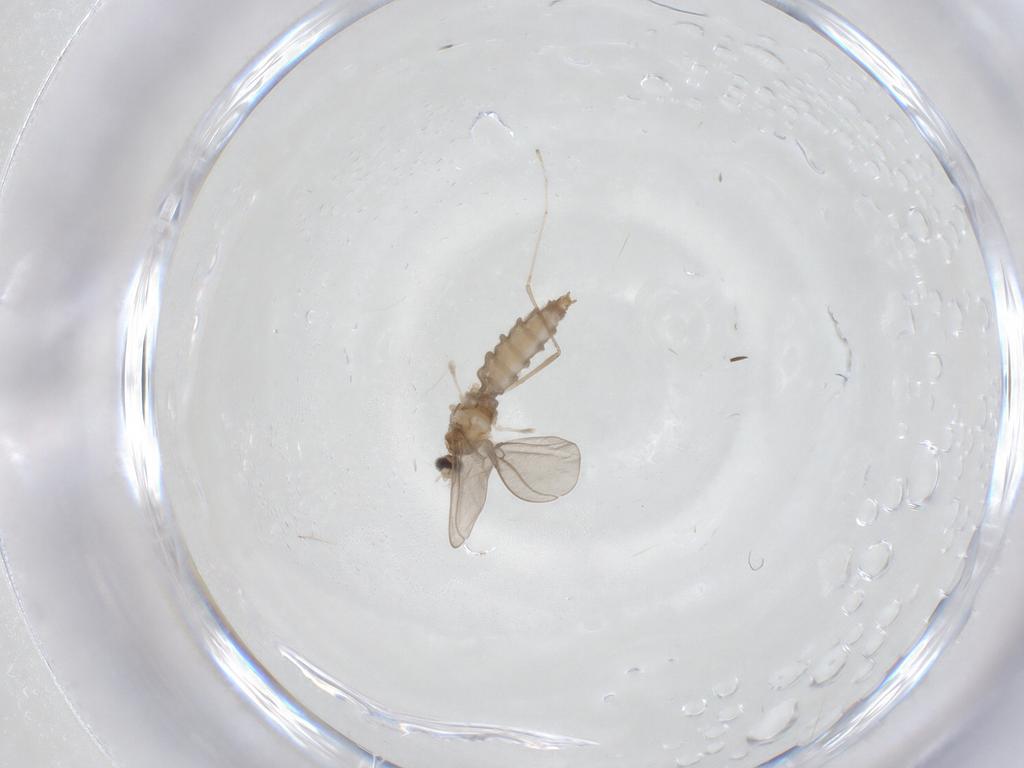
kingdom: Animalia
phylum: Arthropoda
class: Insecta
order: Diptera
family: Cecidomyiidae
